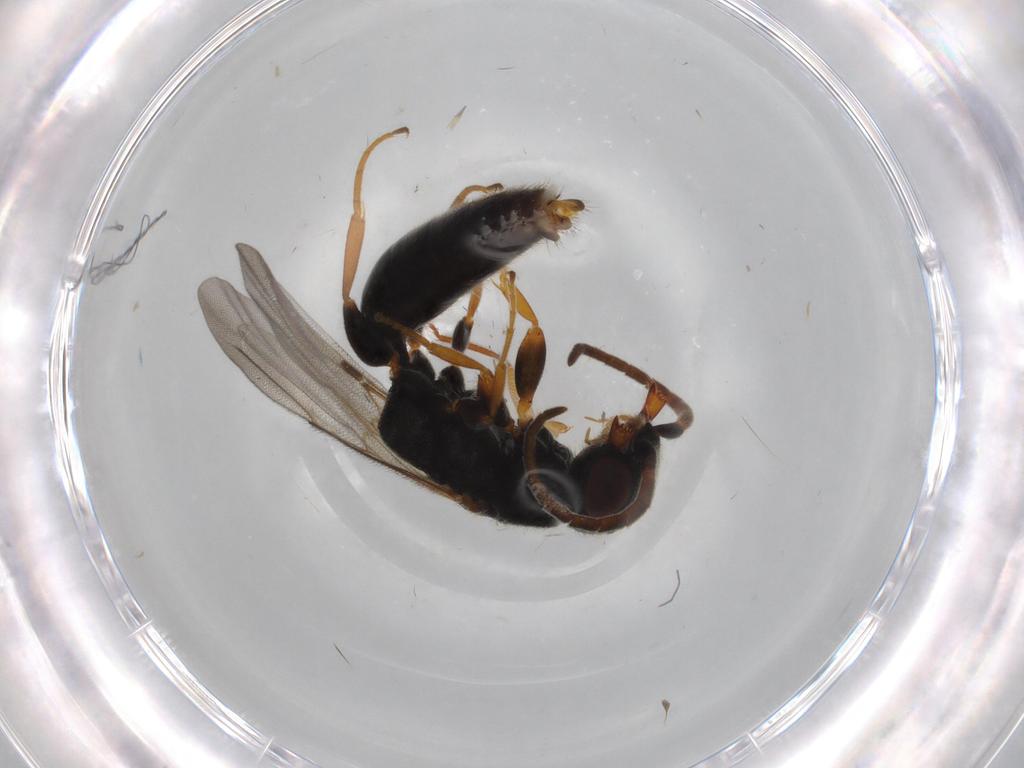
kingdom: Animalia
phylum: Arthropoda
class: Insecta
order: Hymenoptera
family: Bethylidae
